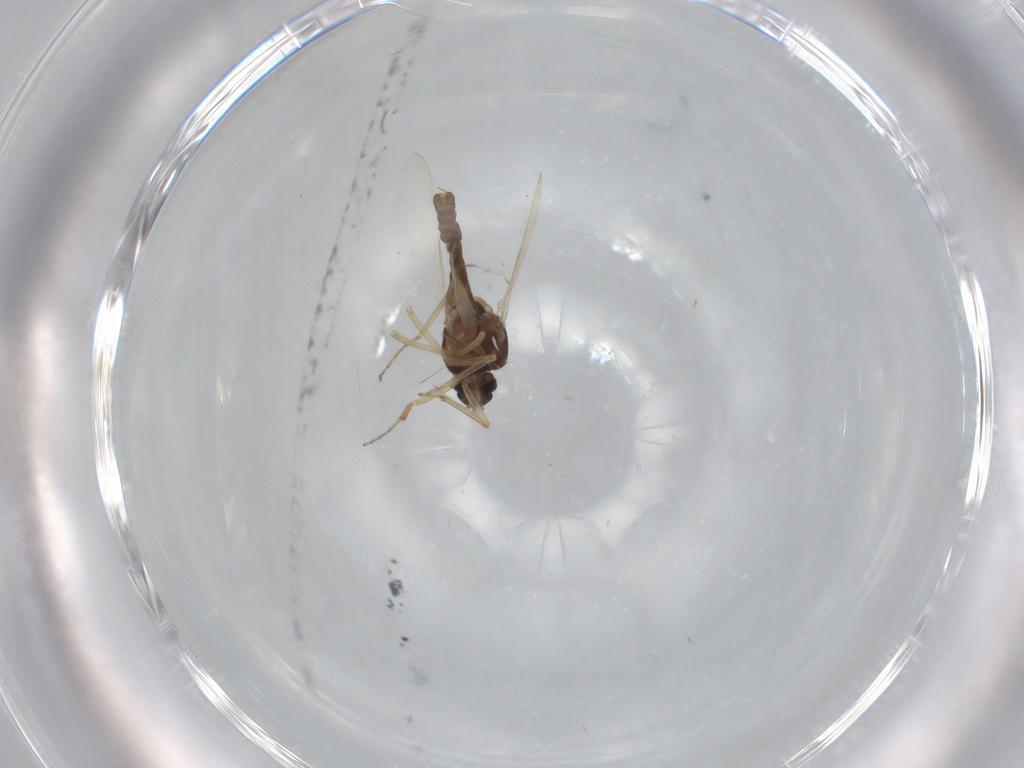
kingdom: Animalia
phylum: Arthropoda
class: Insecta
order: Diptera
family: Ceratopogonidae
